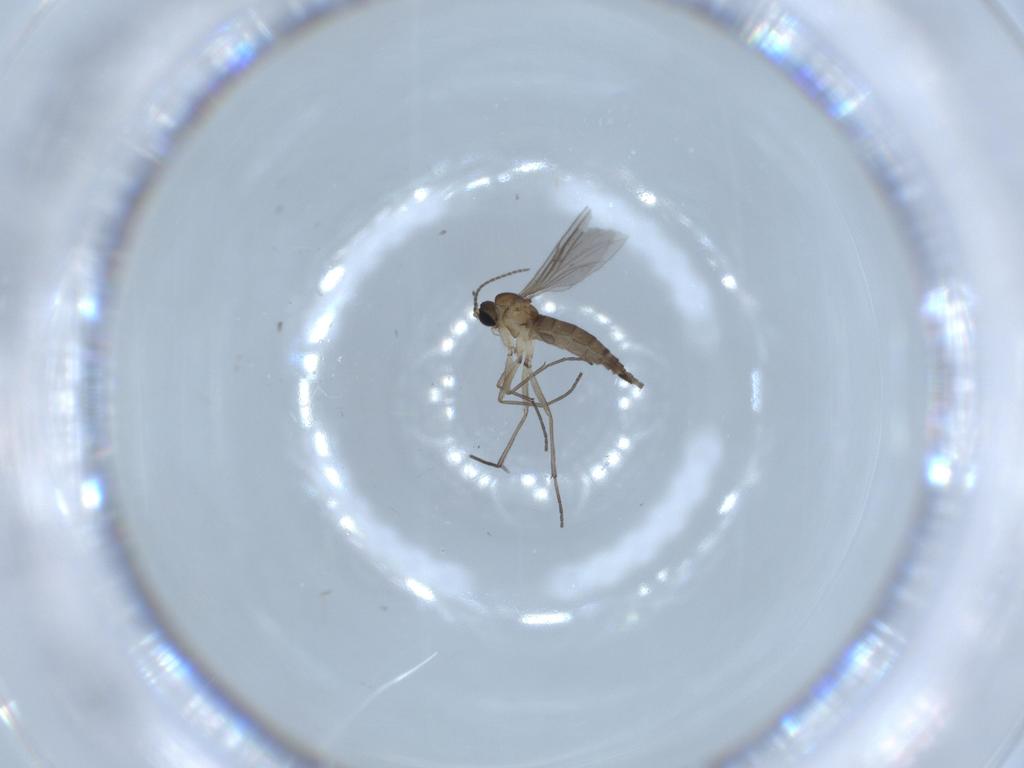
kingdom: Animalia
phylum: Arthropoda
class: Insecta
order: Diptera
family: Sciaridae
